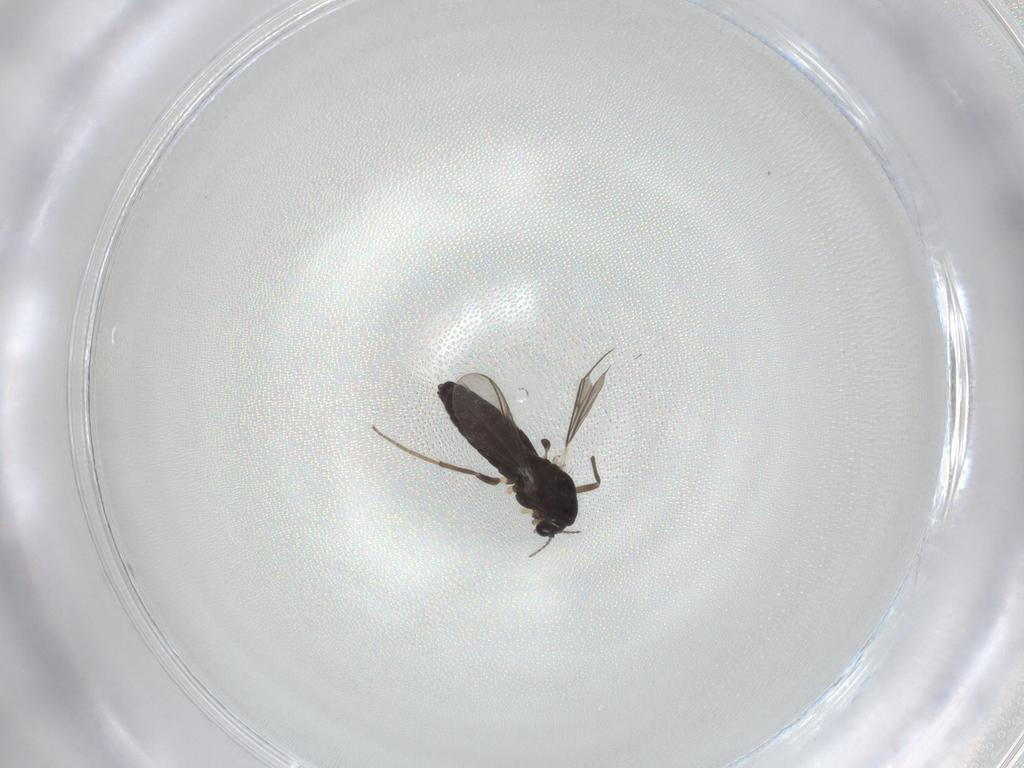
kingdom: Animalia
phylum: Arthropoda
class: Insecta
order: Diptera
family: Chironomidae
